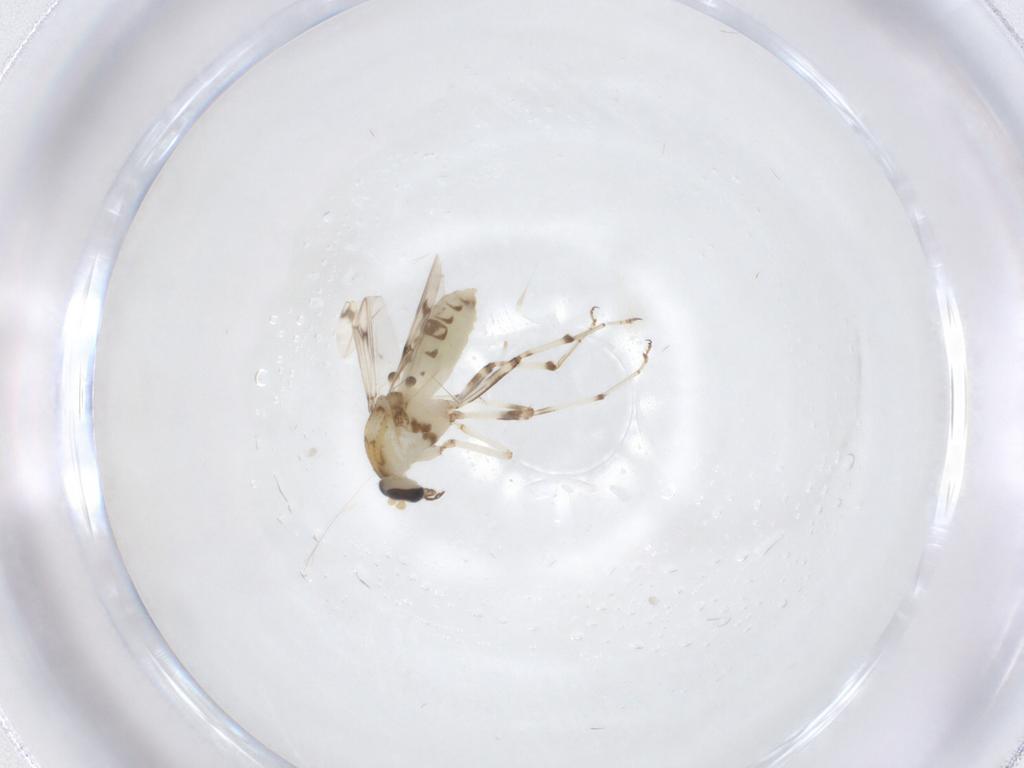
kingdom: Animalia
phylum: Arthropoda
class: Insecta
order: Diptera
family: Ceratopogonidae
